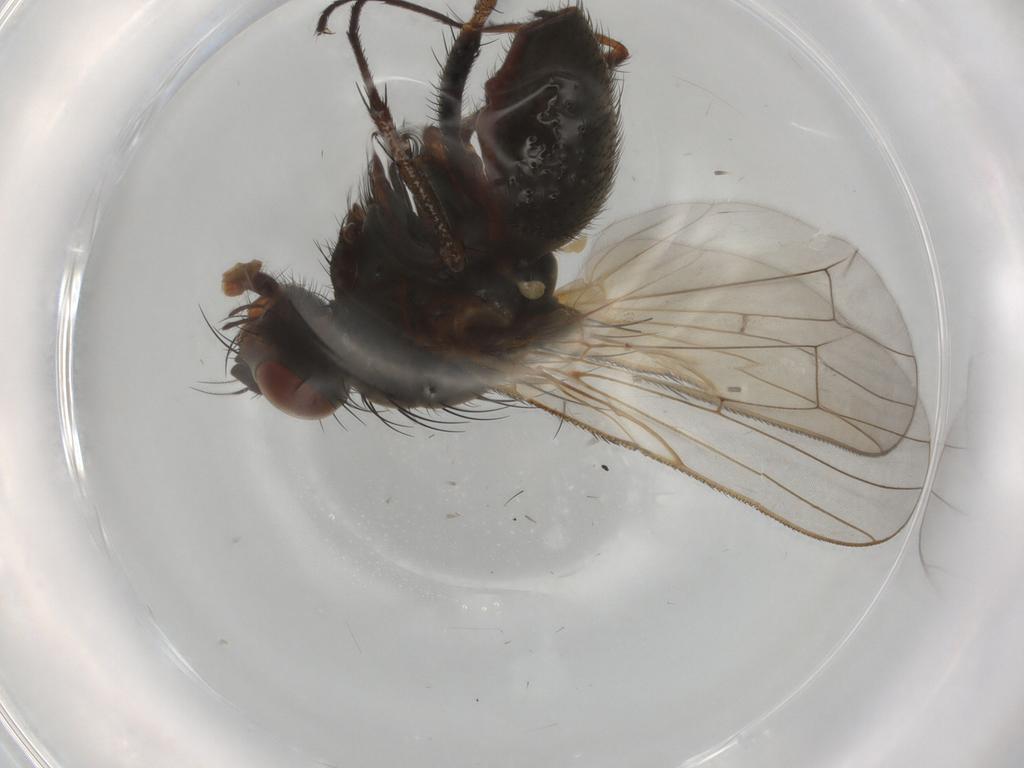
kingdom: Animalia
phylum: Arthropoda
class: Insecta
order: Diptera
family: Anthomyiidae
